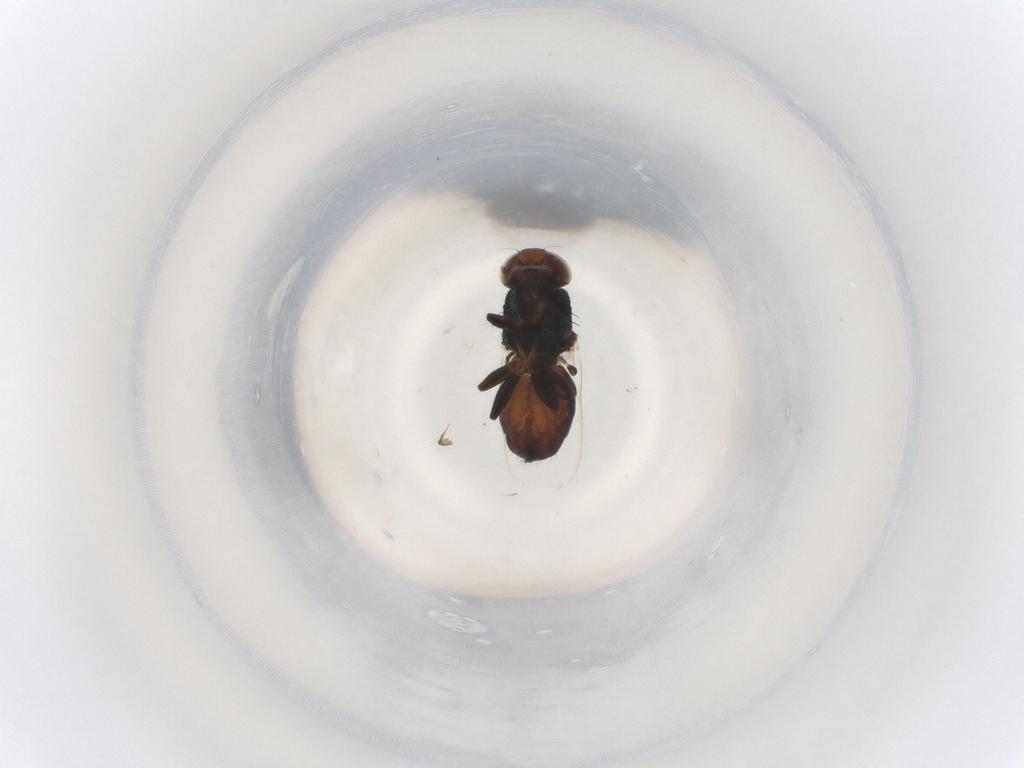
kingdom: Animalia
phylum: Arthropoda
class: Insecta
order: Diptera
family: Chloropidae
